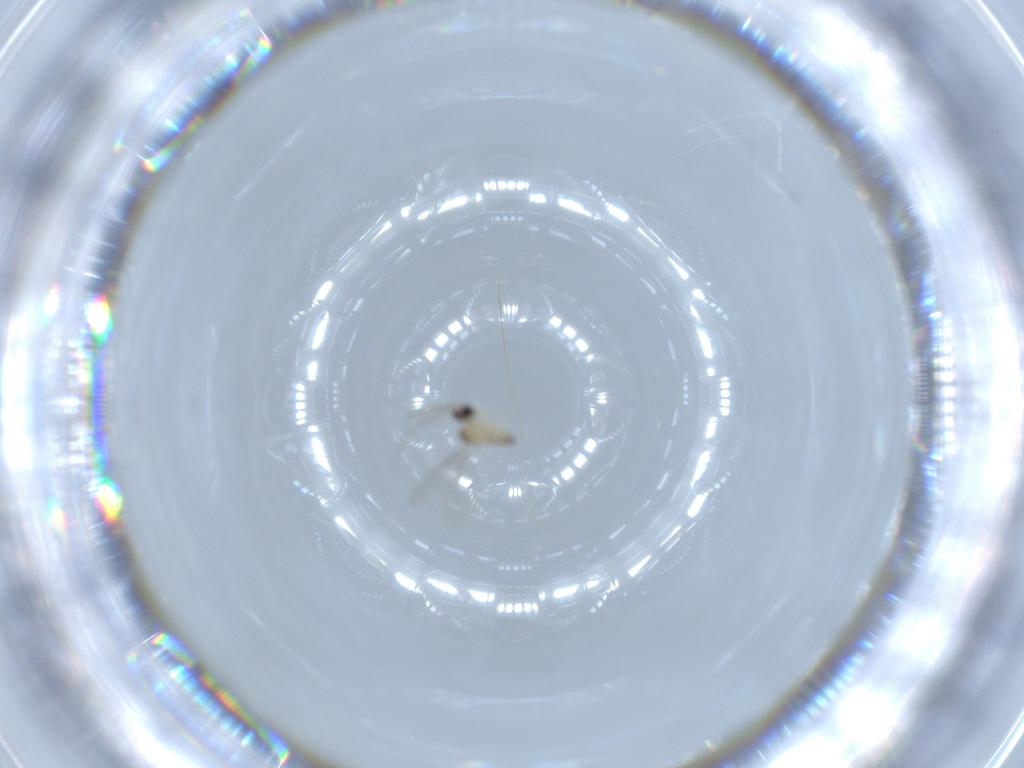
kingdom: Animalia
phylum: Arthropoda
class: Insecta
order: Diptera
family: Cecidomyiidae
